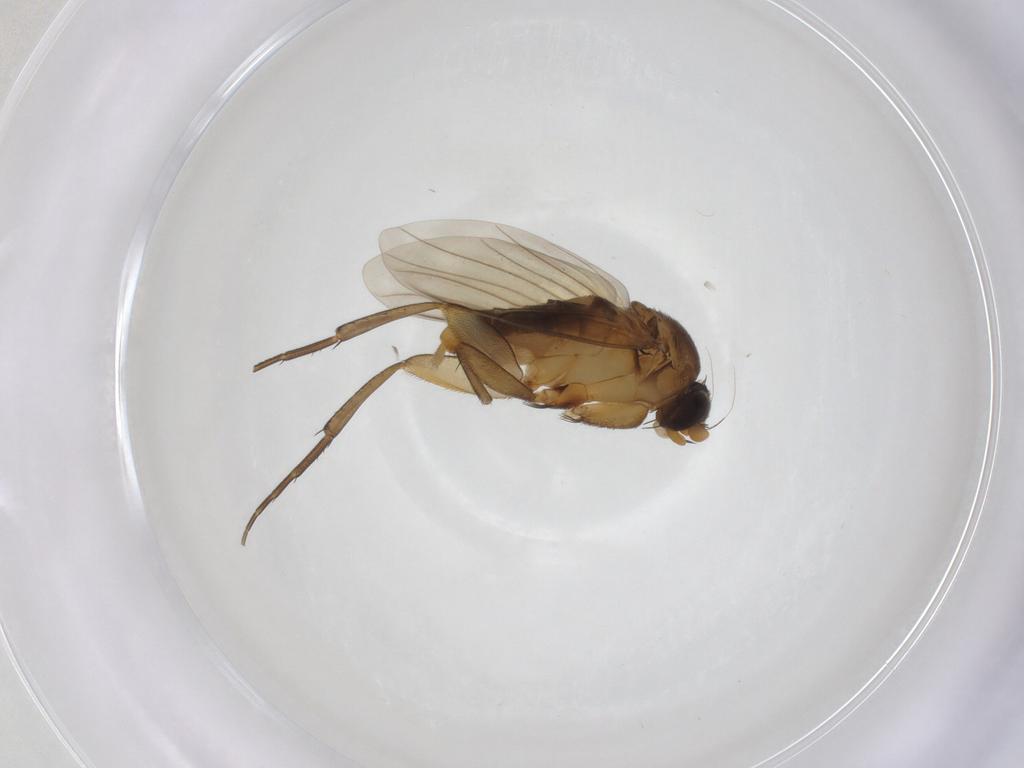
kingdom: Animalia
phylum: Arthropoda
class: Insecta
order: Diptera
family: Phoridae
